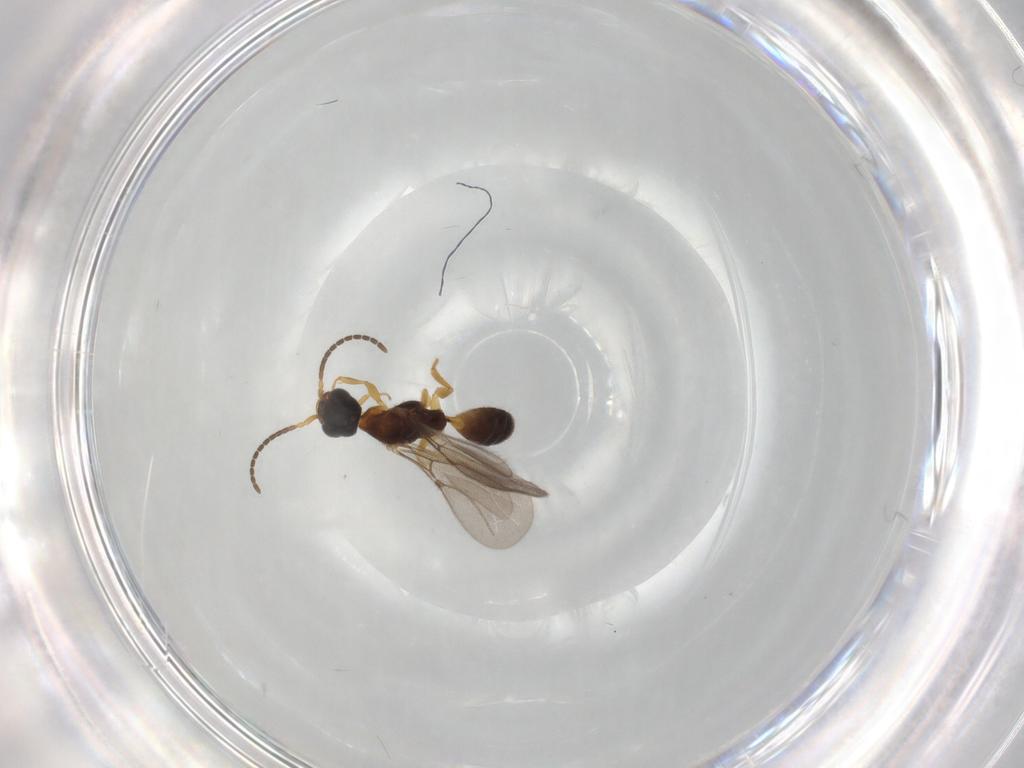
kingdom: Animalia
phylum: Arthropoda
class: Insecta
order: Hymenoptera
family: Bethylidae
